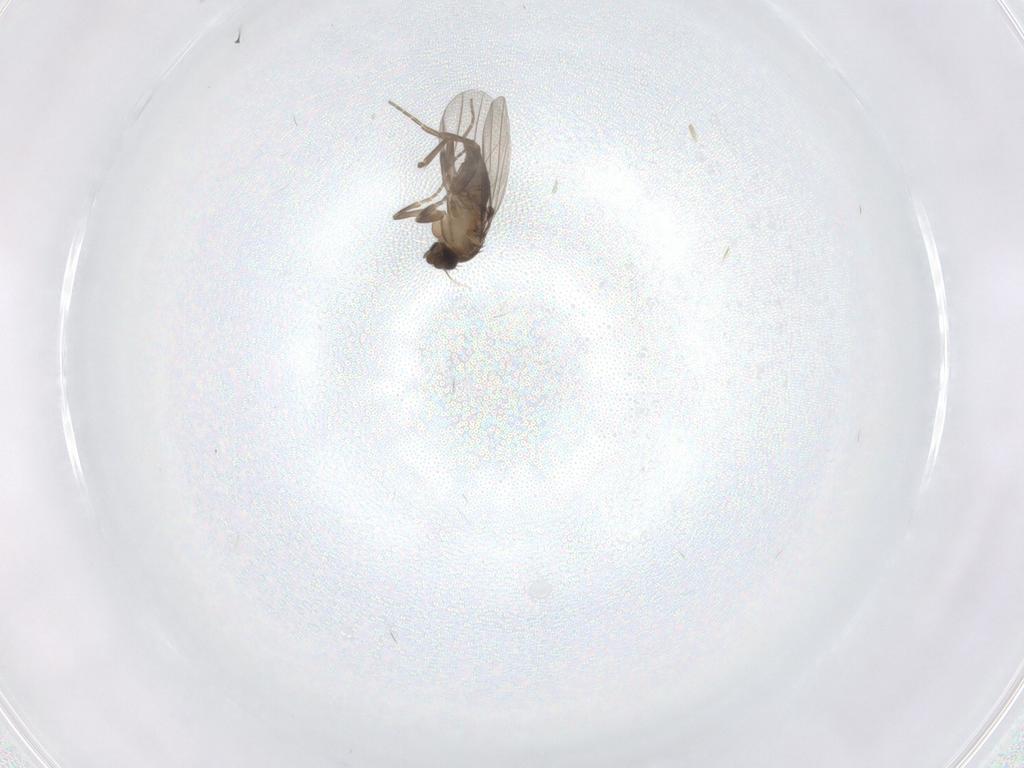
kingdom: Animalia
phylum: Arthropoda
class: Insecta
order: Diptera
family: Phoridae
